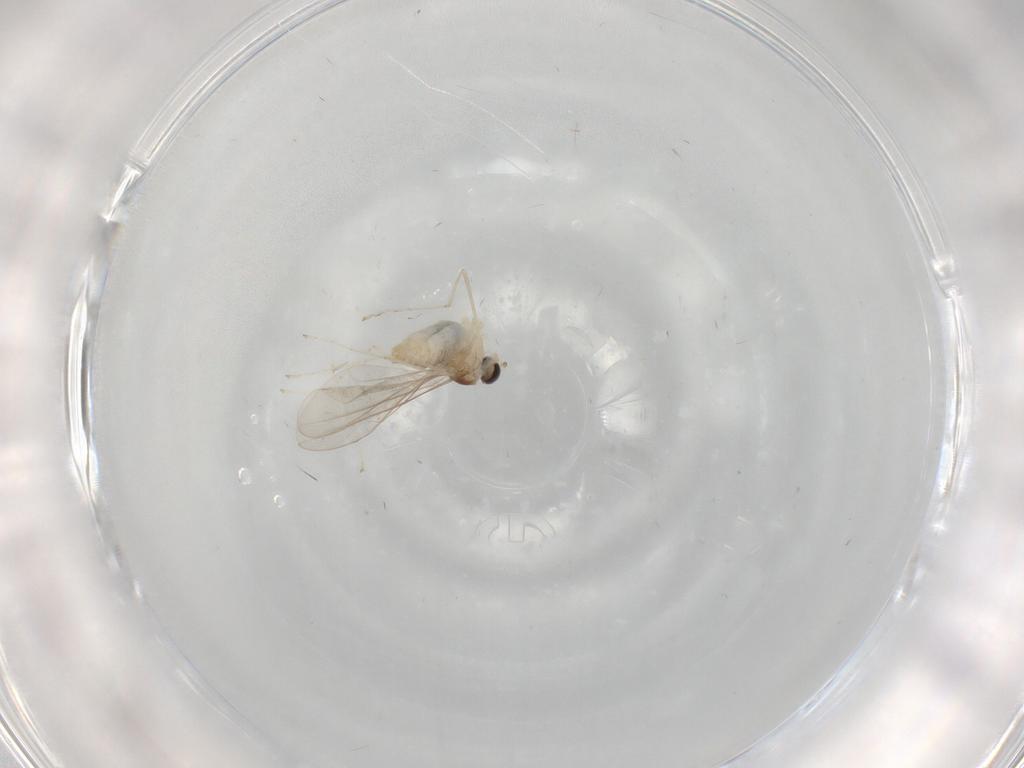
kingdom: Animalia
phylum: Arthropoda
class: Insecta
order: Diptera
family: Cecidomyiidae
